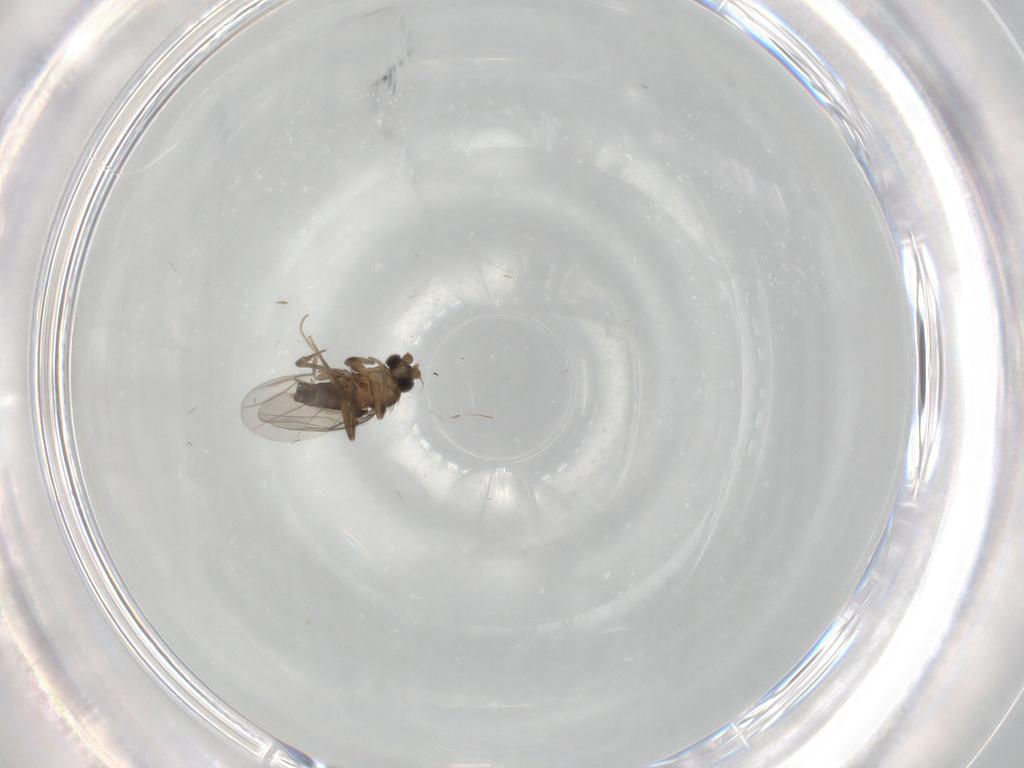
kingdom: Animalia
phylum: Arthropoda
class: Insecta
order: Diptera
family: Phoridae
